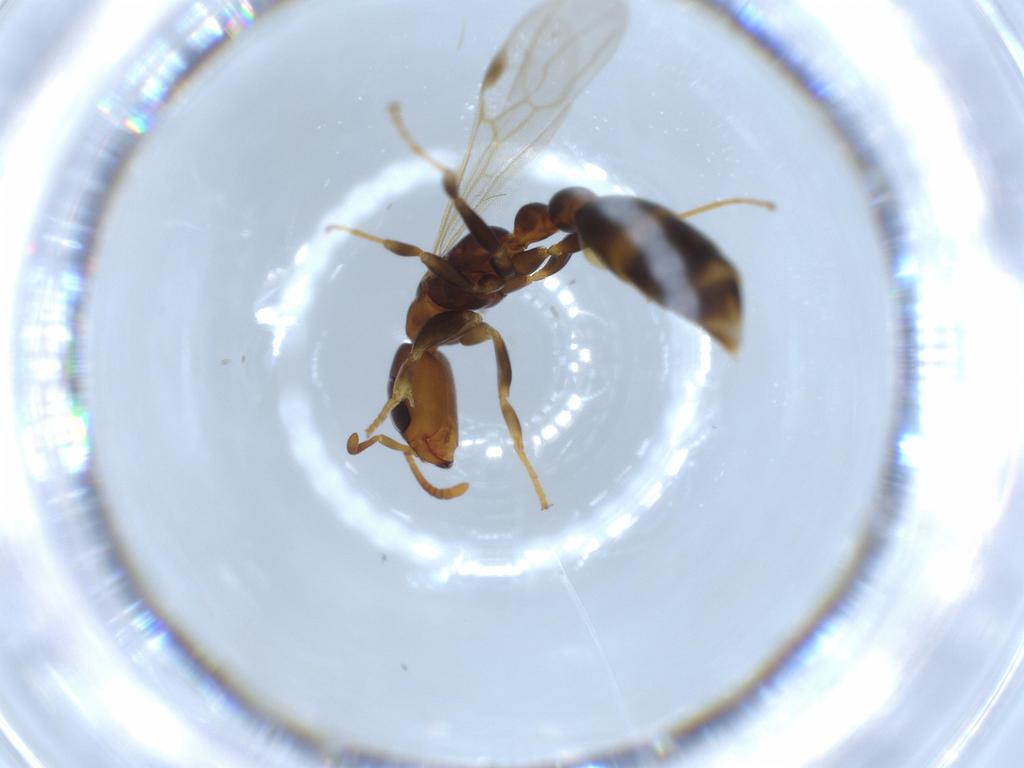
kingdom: Animalia
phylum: Arthropoda
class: Insecta
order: Hymenoptera
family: Formicidae
